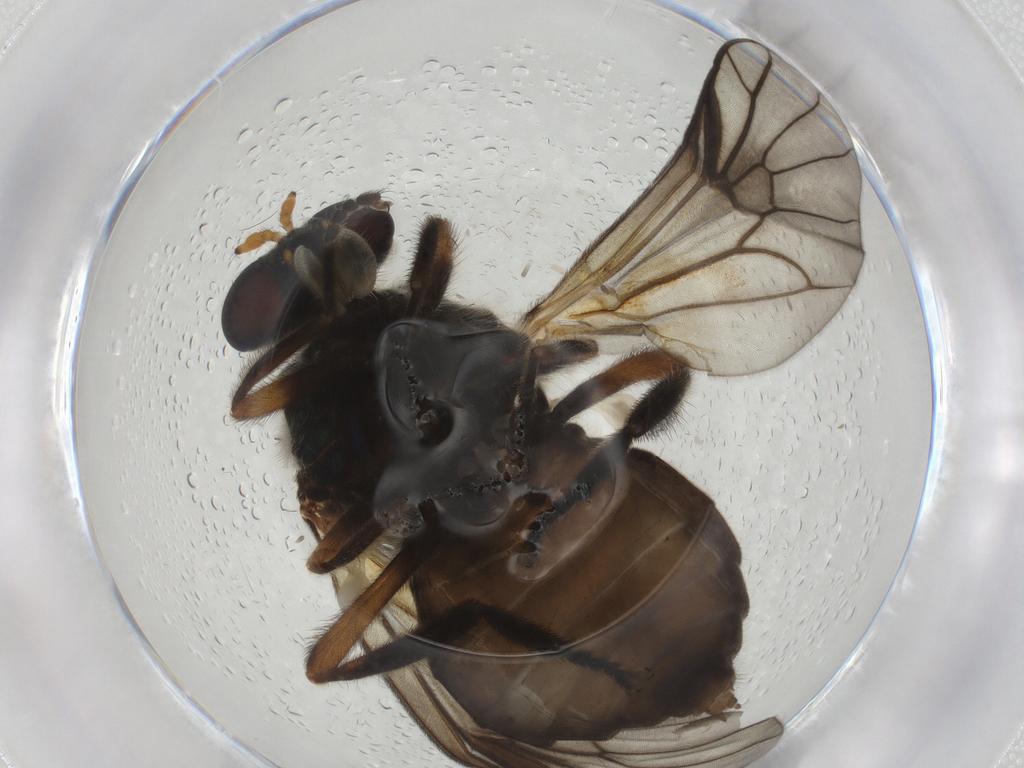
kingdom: Animalia
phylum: Arthropoda
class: Insecta
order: Diptera
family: Stratiomyidae
